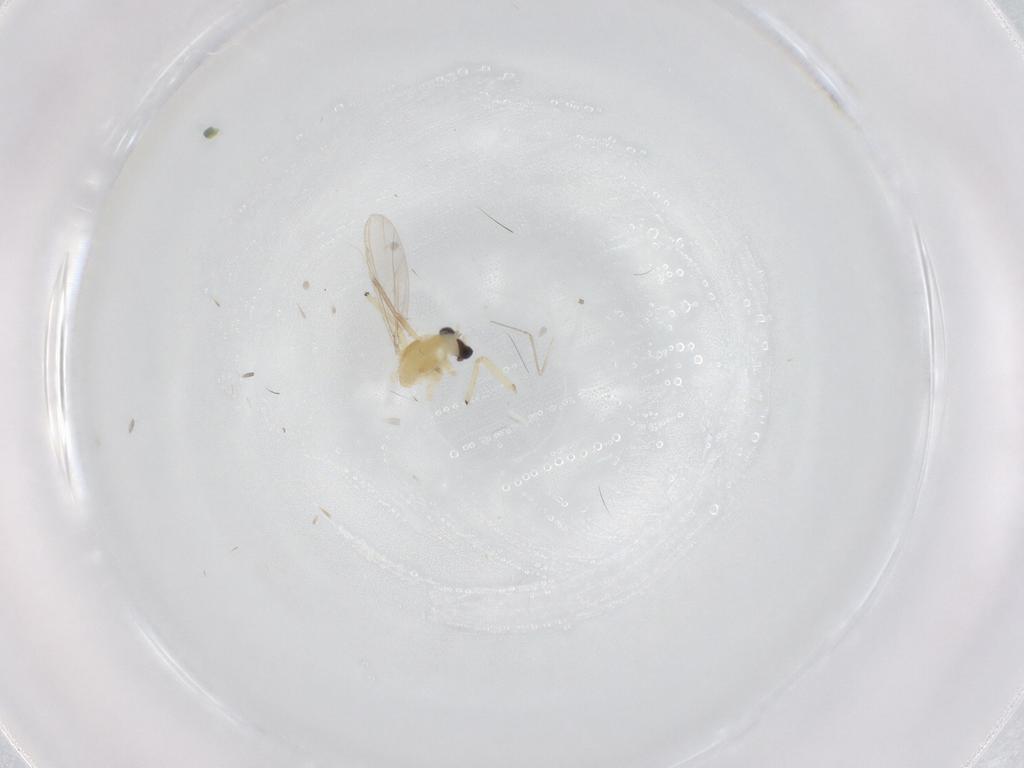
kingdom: Animalia
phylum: Arthropoda
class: Insecta
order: Diptera
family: Chironomidae
